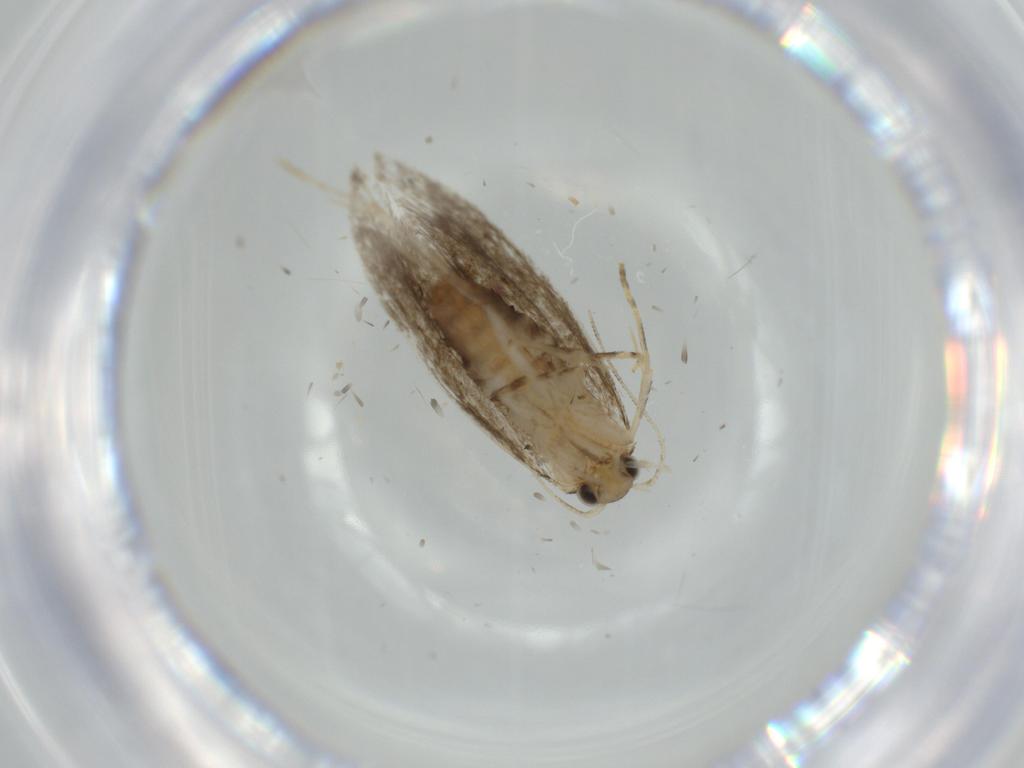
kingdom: Animalia
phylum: Arthropoda
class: Insecta
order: Lepidoptera
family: Tineidae
